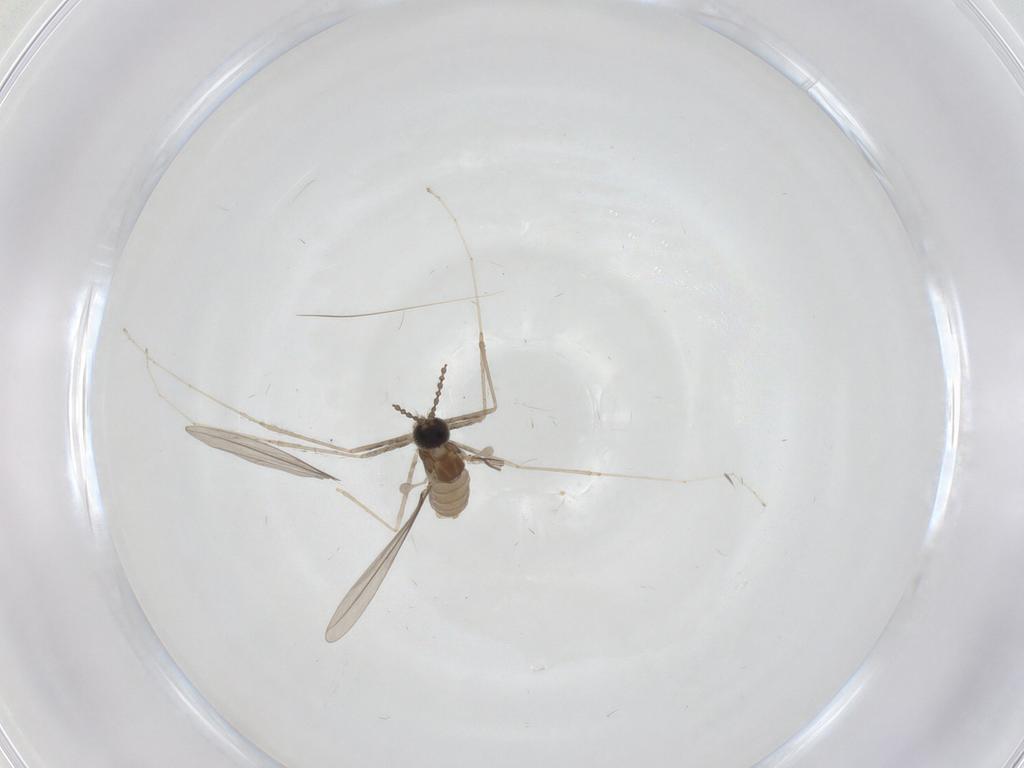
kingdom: Animalia
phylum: Arthropoda
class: Insecta
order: Diptera
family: Cecidomyiidae
